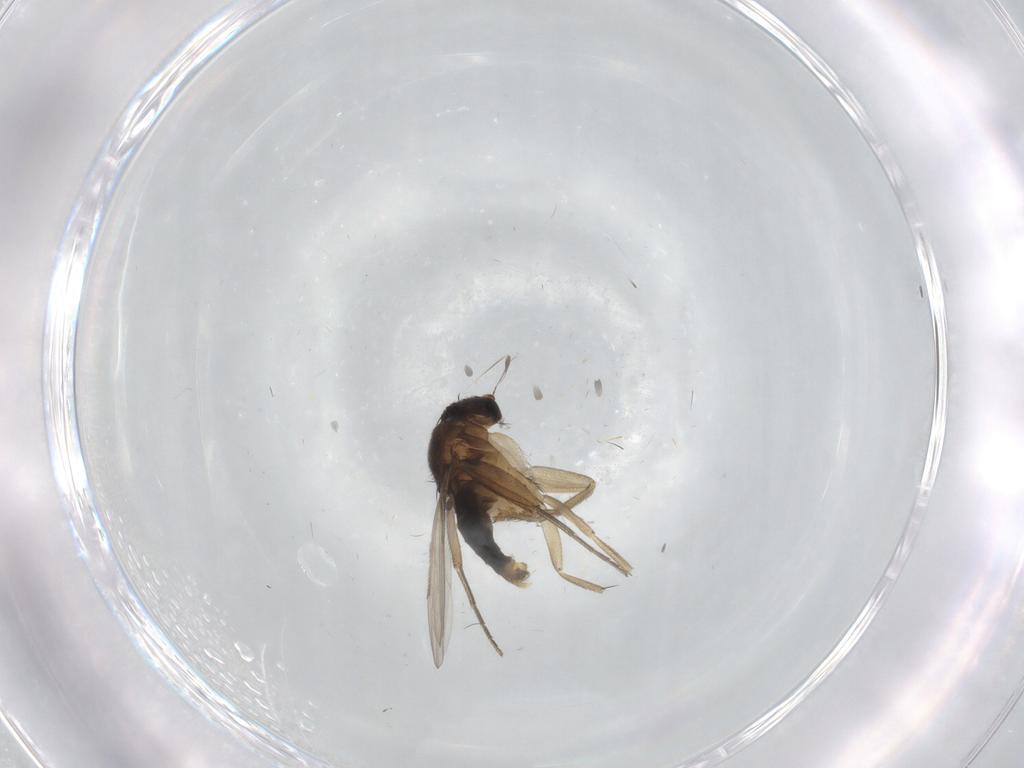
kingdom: Animalia
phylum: Arthropoda
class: Insecta
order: Diptera
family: Phoridae
